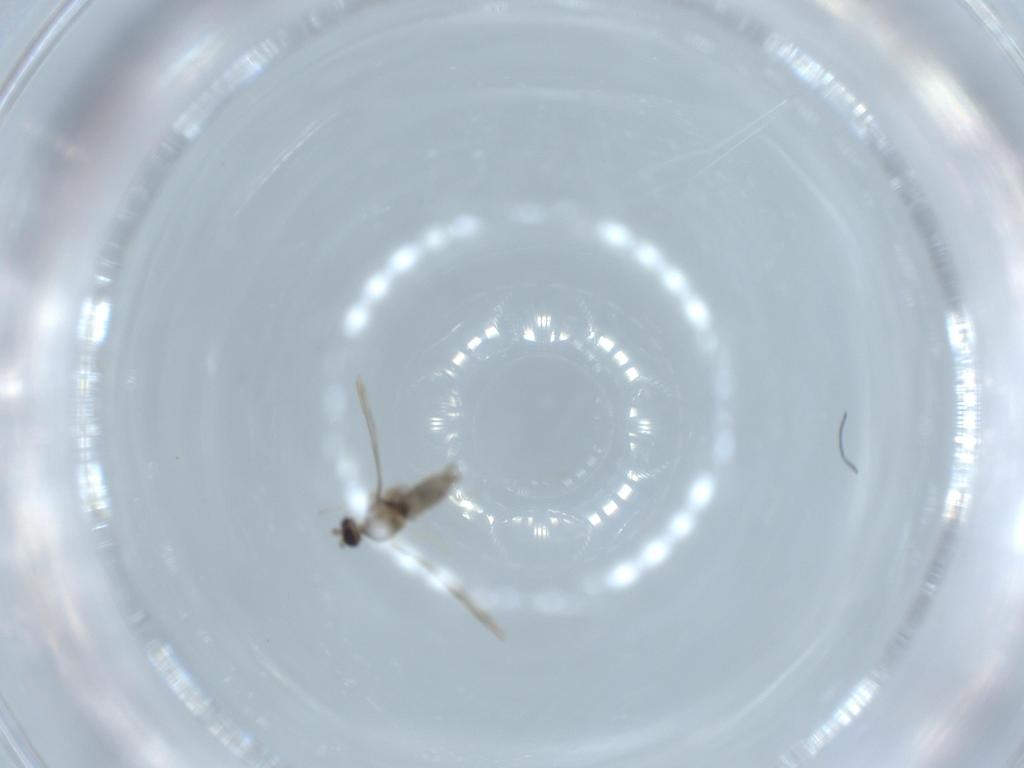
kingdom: Animalia
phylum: Arthropoda
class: Insecta
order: Diptera
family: Cecidomyiidae
